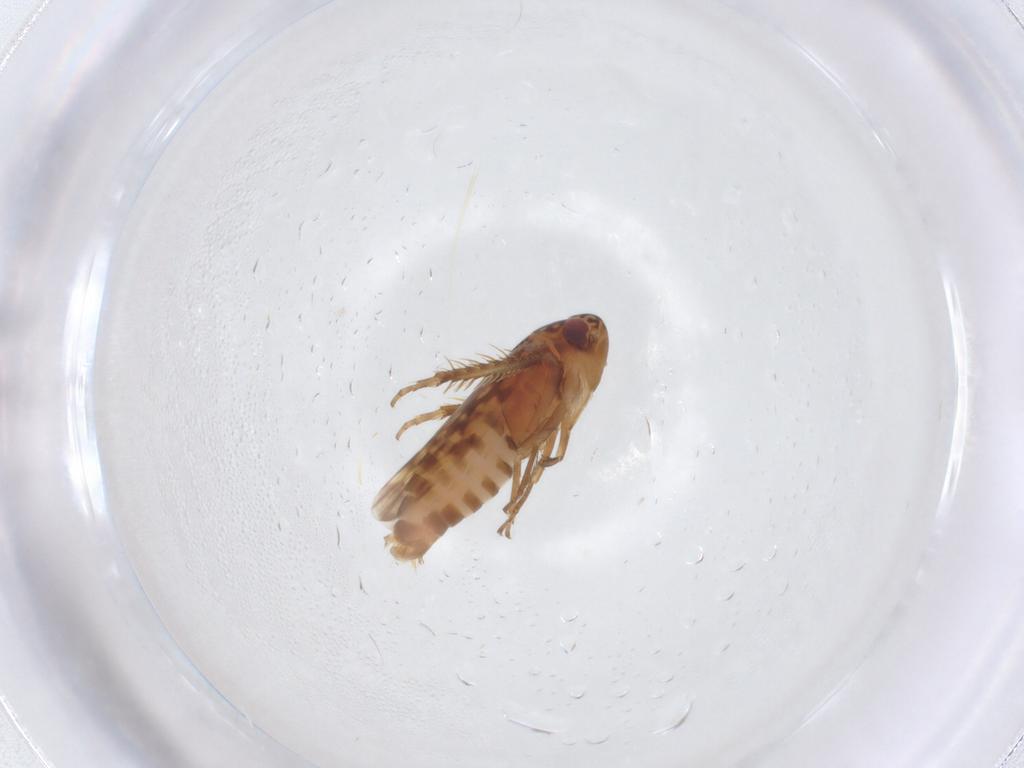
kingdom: Animalia
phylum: Arthropoda
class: Insecta
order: Hemiptera
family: Cicadellidae
